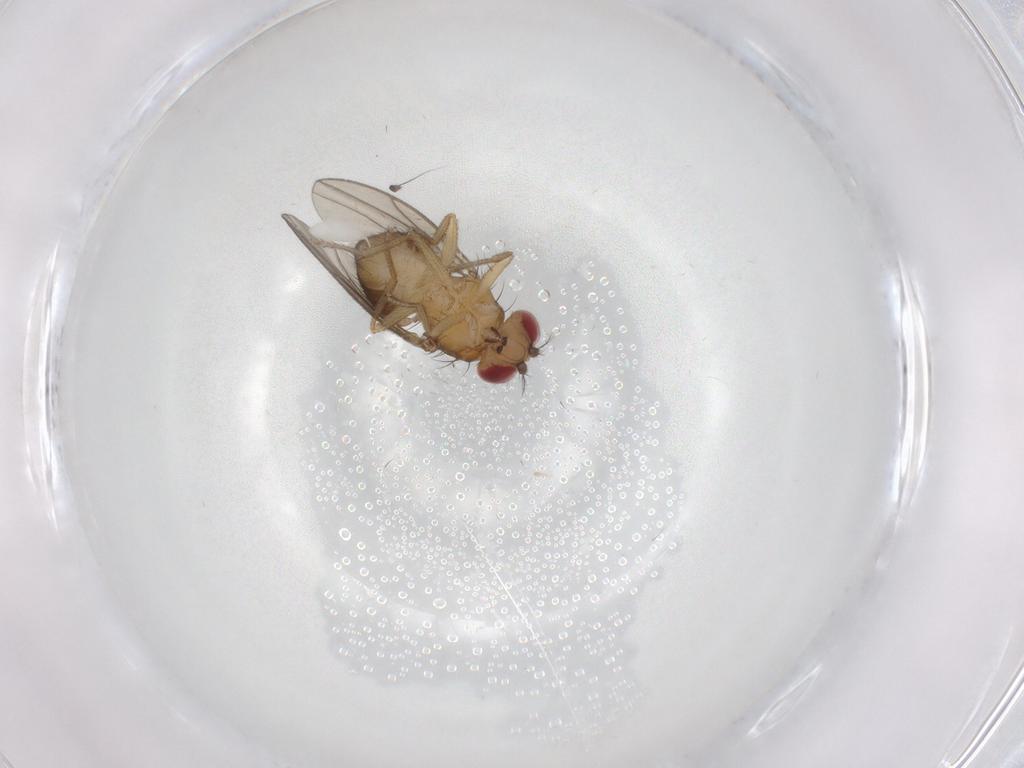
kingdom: Animalia
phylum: Arthropoda
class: Insecta
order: Diptera
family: Drosophilidae
